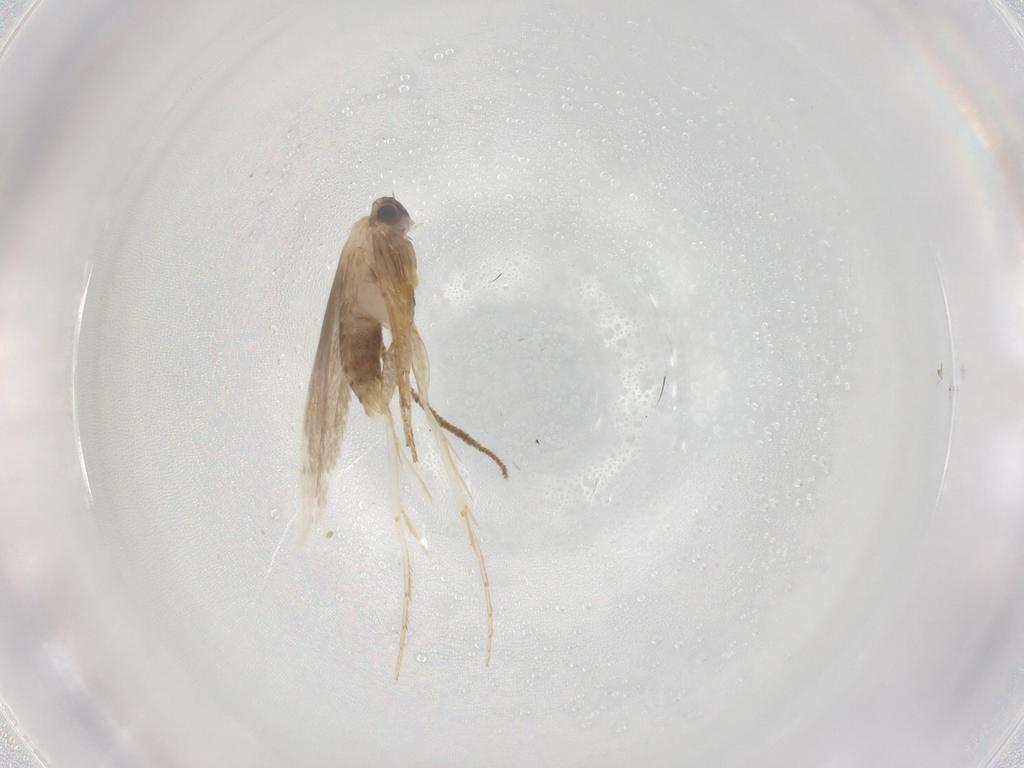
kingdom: Animalia
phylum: Arthropoda
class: Insecta
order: Lepidoptera
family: Tineidae
